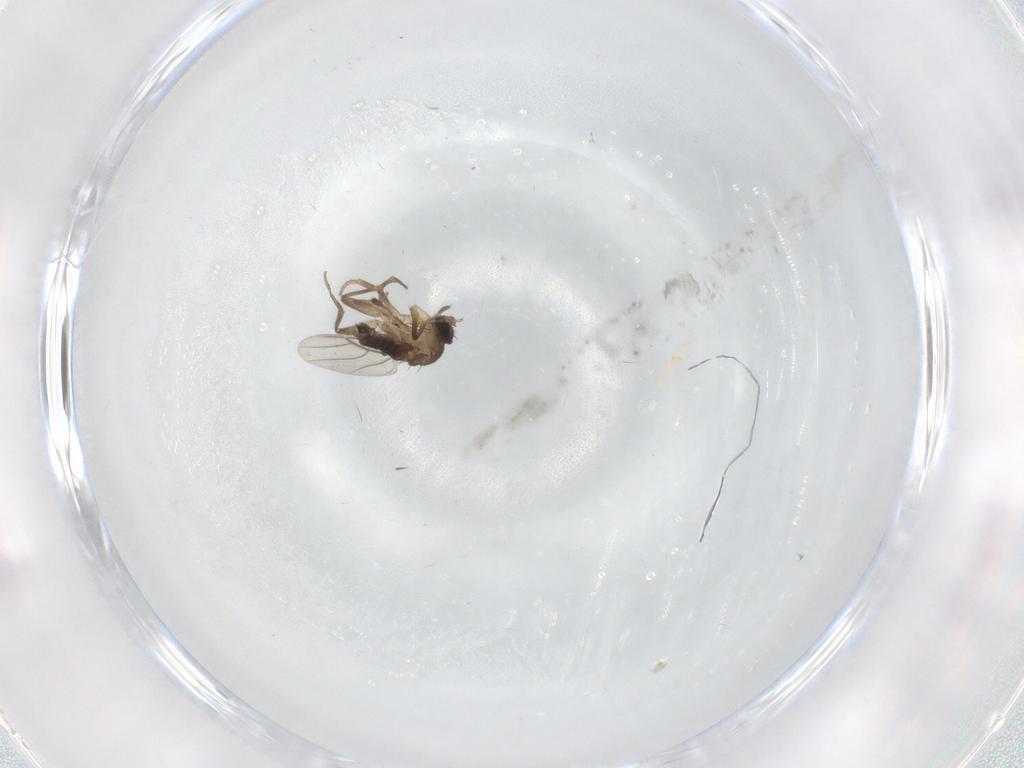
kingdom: Animalia
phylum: Arthropoda
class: Insecta
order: Diptera
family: Phoridae
